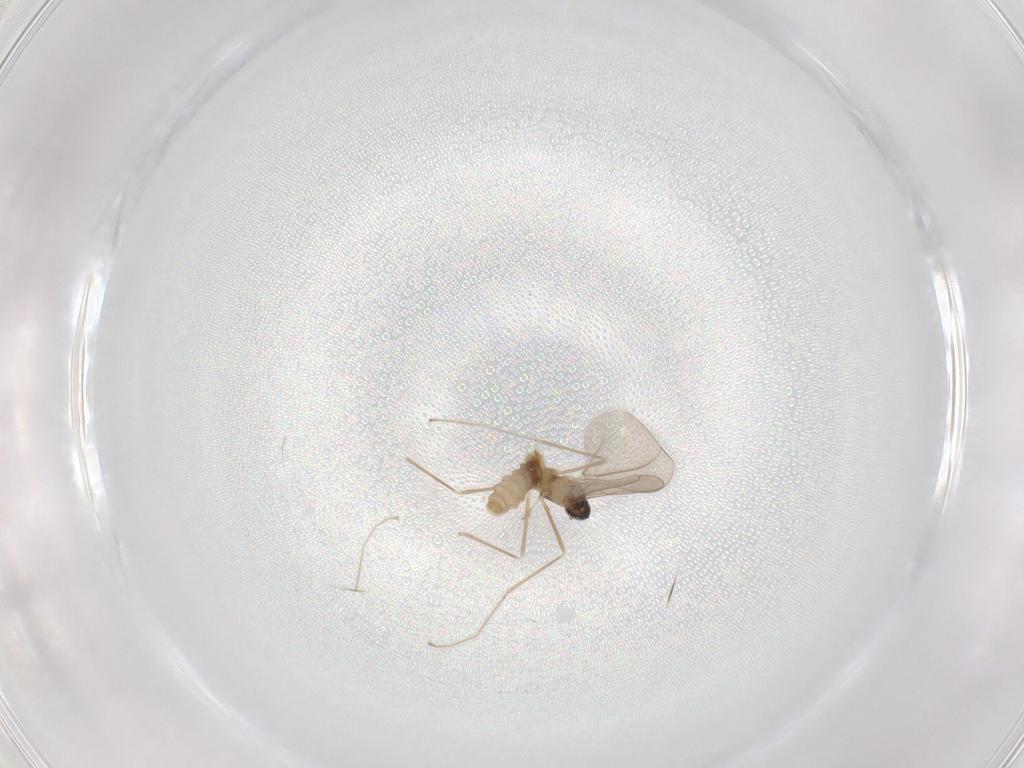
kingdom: Animalia
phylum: Arthropoda
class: Insecta
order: Diptera
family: Cecidomyiidae
